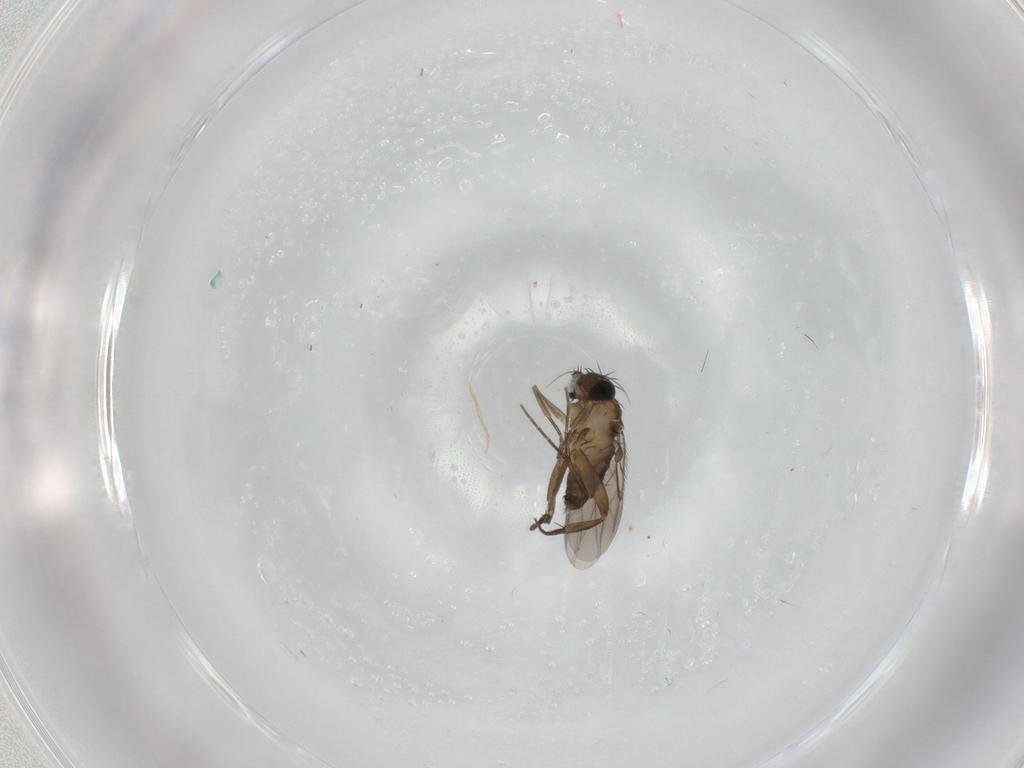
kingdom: Animalia
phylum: Arthropoda
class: Insecta
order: Diptera
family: Phoridae
